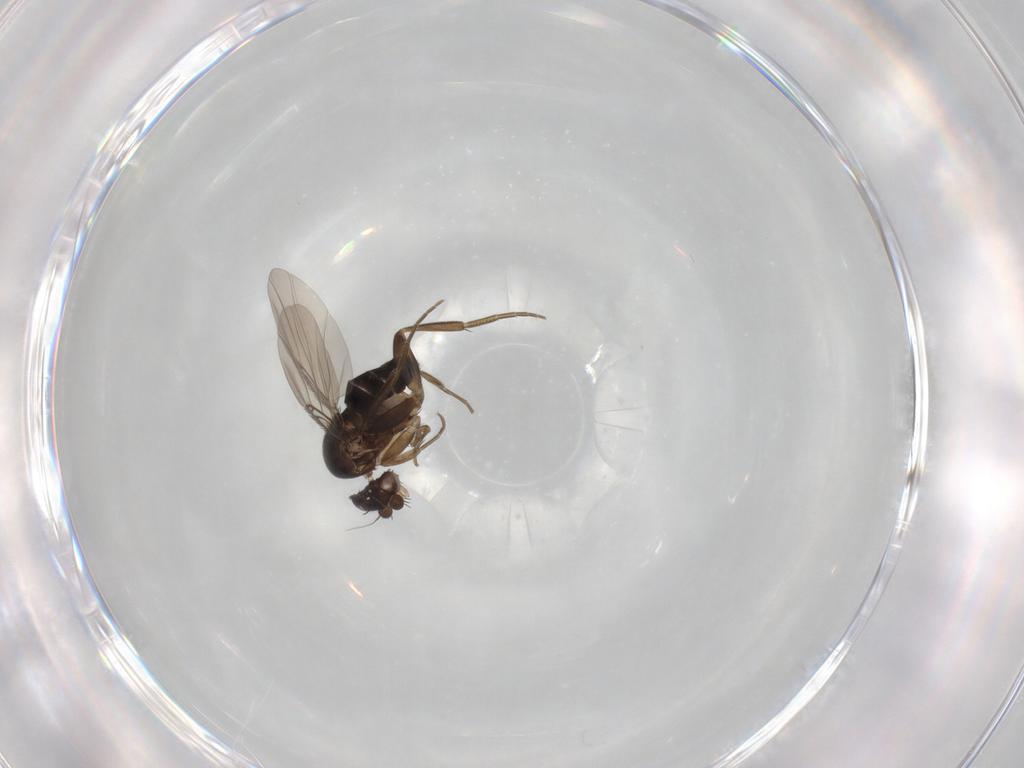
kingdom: Animalia
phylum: Arthropoda
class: Insecta
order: Diptera
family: Phoridae
